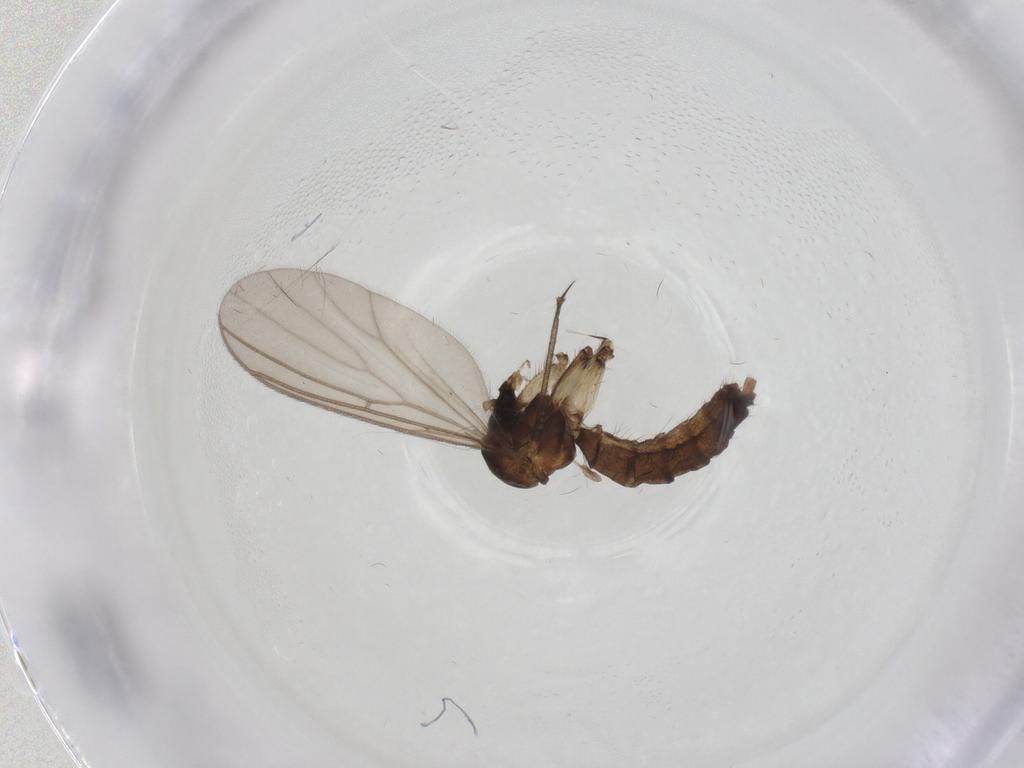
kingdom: Animalia
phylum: Arthropoda
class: Insecta
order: Diptera
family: Mycetophilidae
